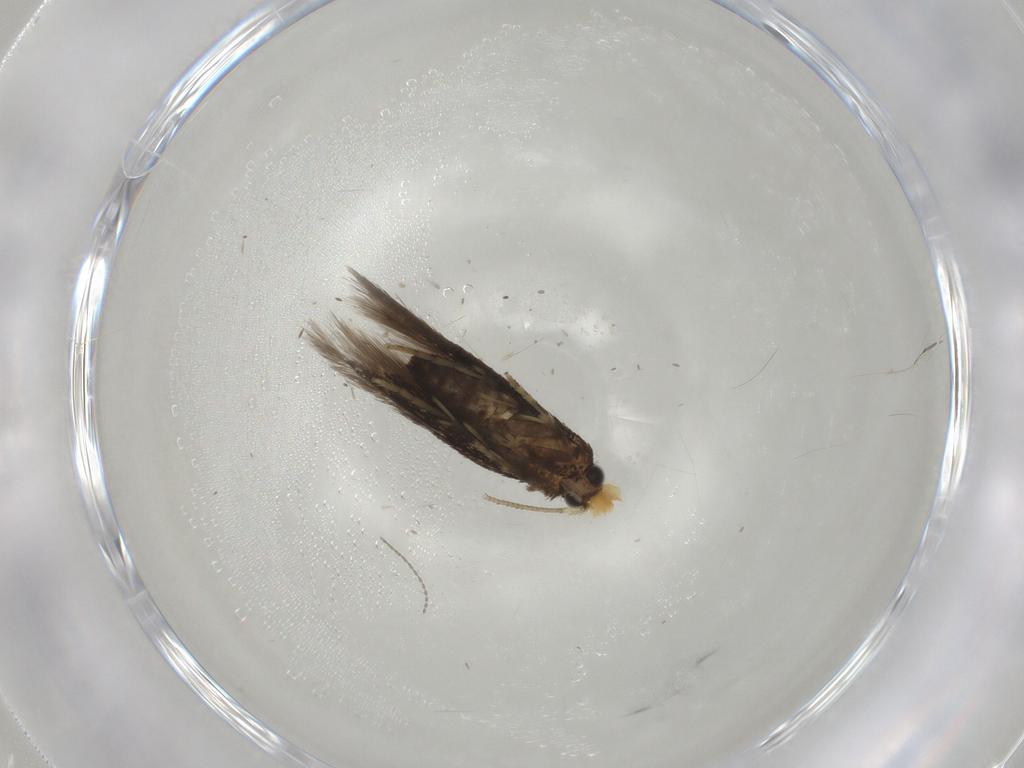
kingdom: Animalia
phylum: Arthropoda
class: Insecta
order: Lepidoptera
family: Nepticulidae
